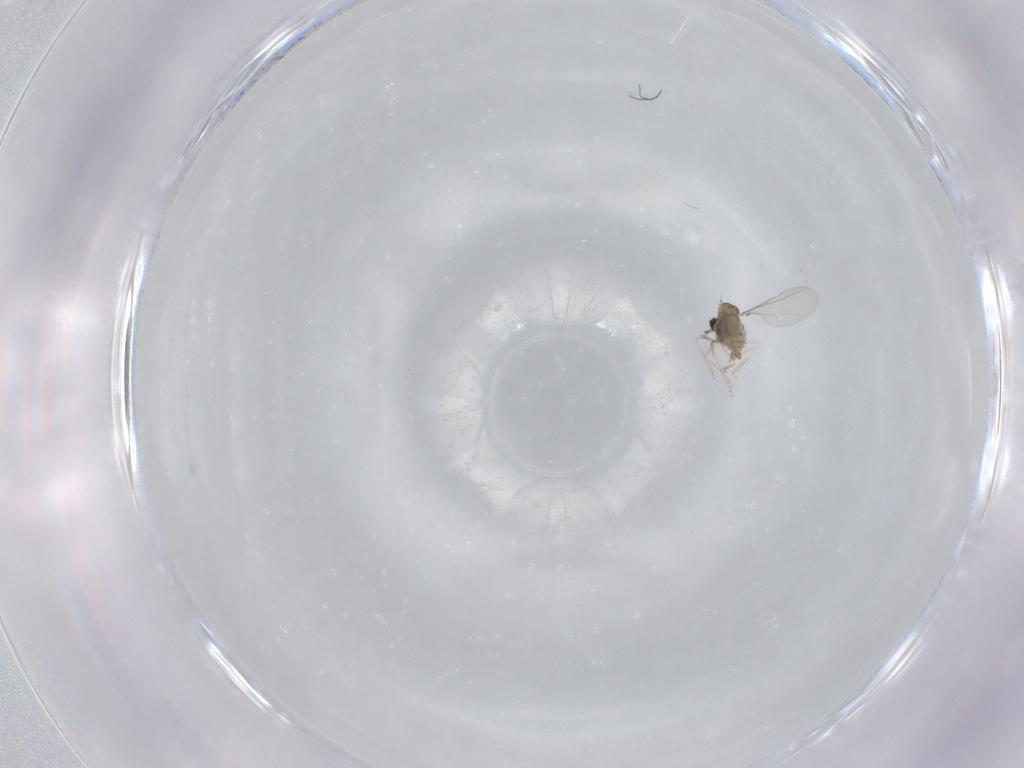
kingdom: Animalia
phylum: Arthropoda
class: Insecta
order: Diptera
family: Cecidomyiidae
